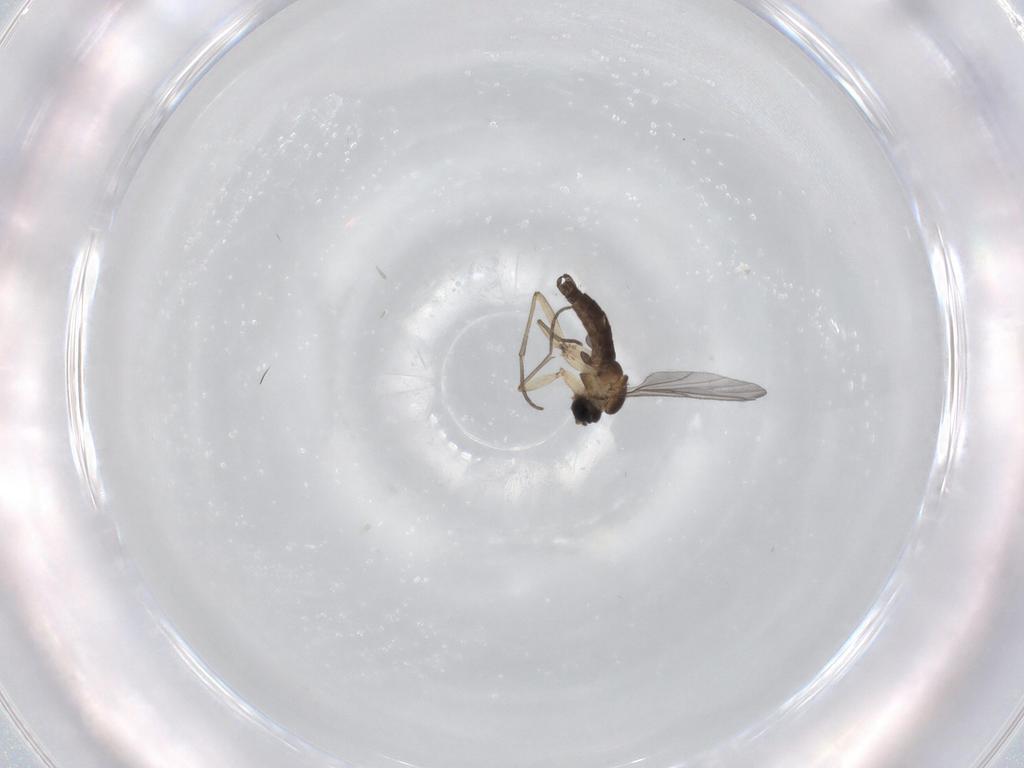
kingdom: Animalia
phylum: Arthropoda
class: Insecta
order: Diptera
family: Sciaridae
